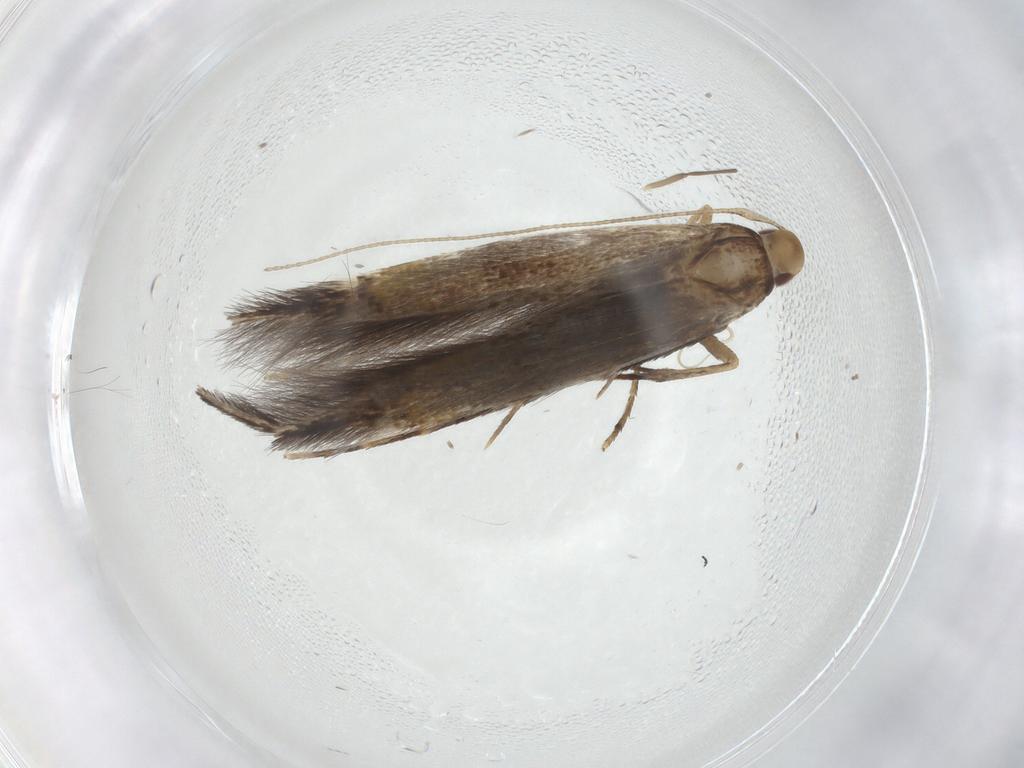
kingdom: Animalia
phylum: Arthropoda
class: Insecta
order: Lepidoptera
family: Cosmopterigidae
